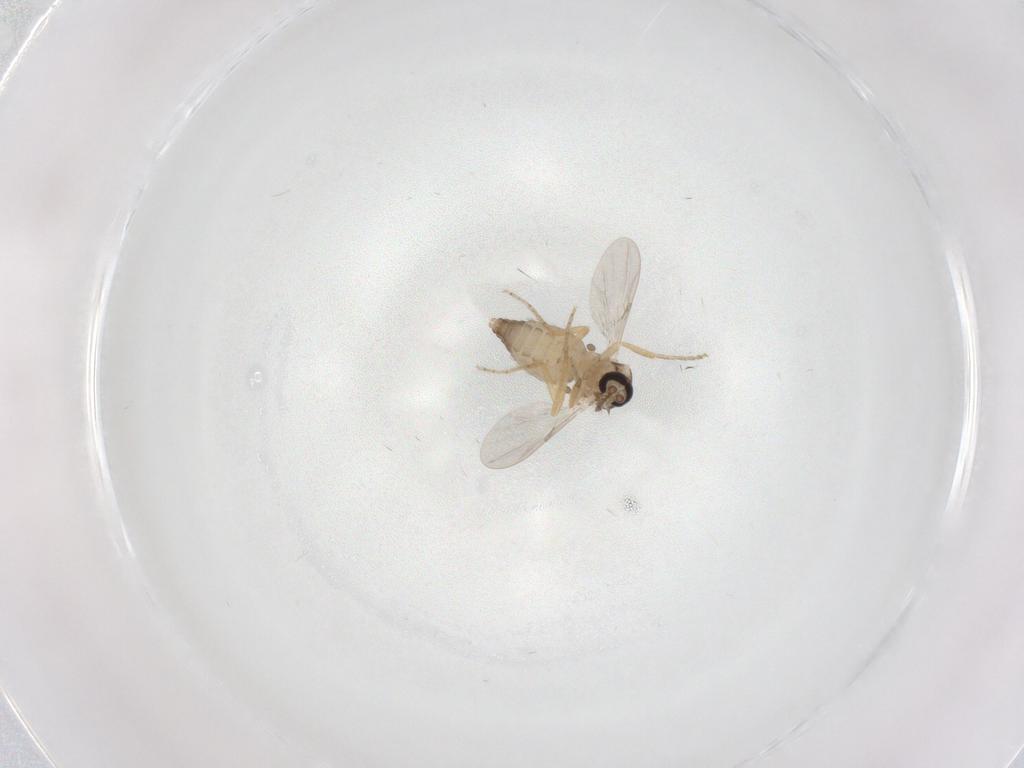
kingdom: Animalia
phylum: Arthropoda
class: Insecta
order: Diptera
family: Ceratopogonidae
